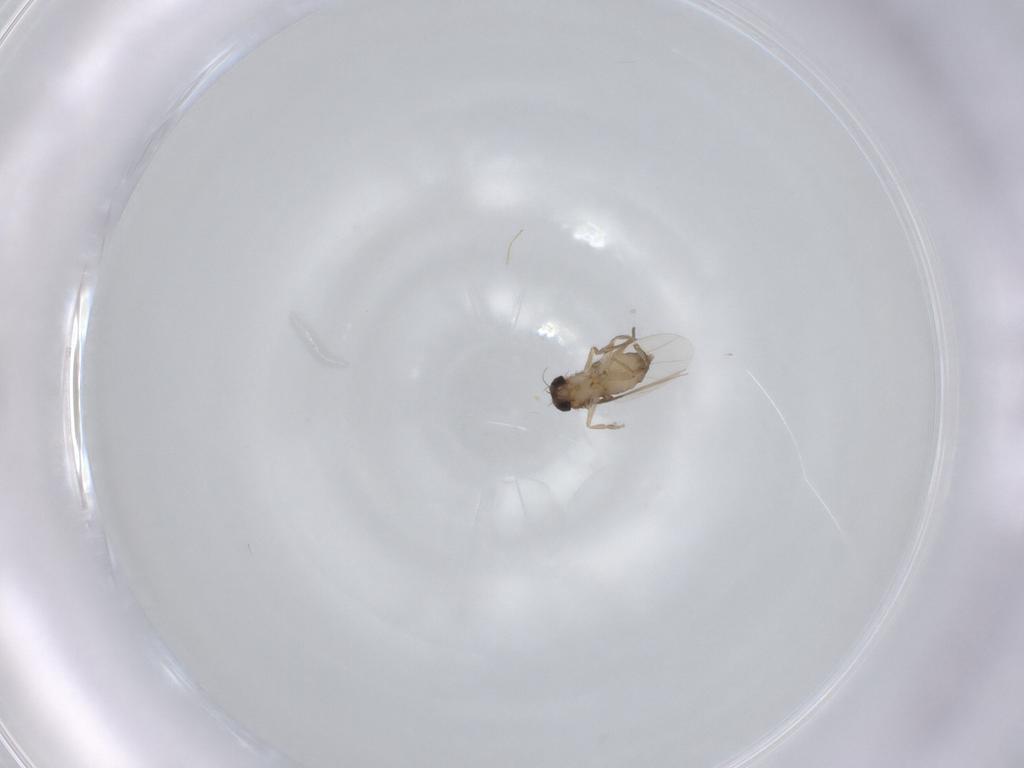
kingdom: Animalia
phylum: Arthropoda
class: Insecta
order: Diptera
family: Phoridae
